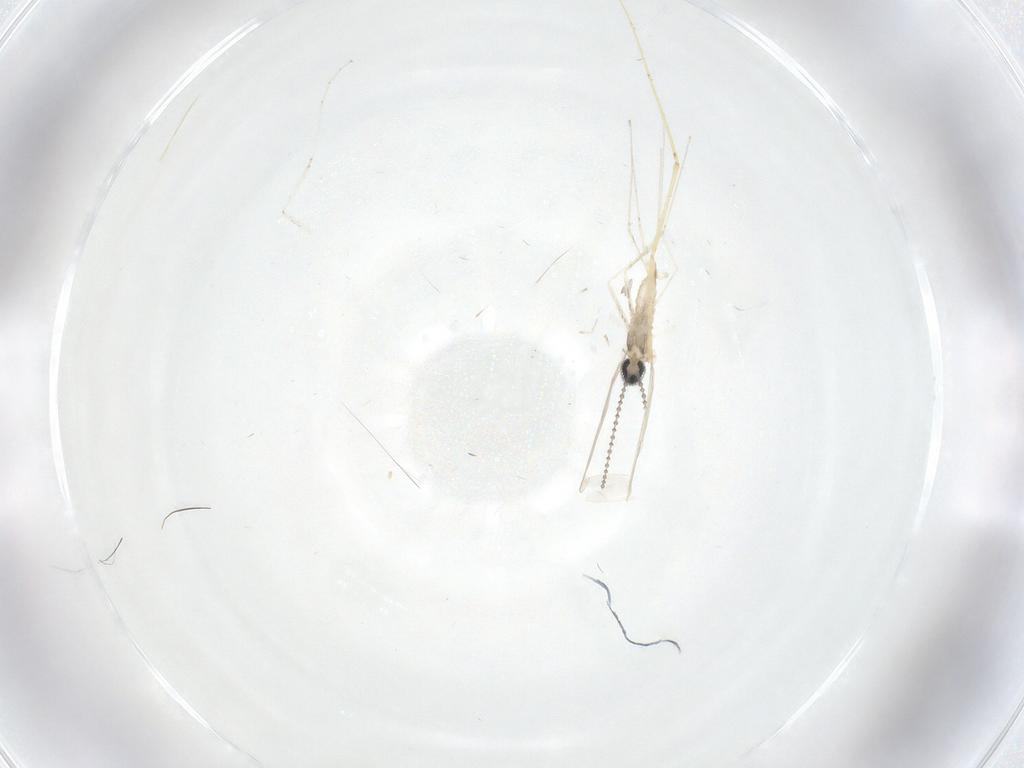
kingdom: Animalia
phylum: Arthropoda
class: Insecta
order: Diptera
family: Cecidomyiidae
